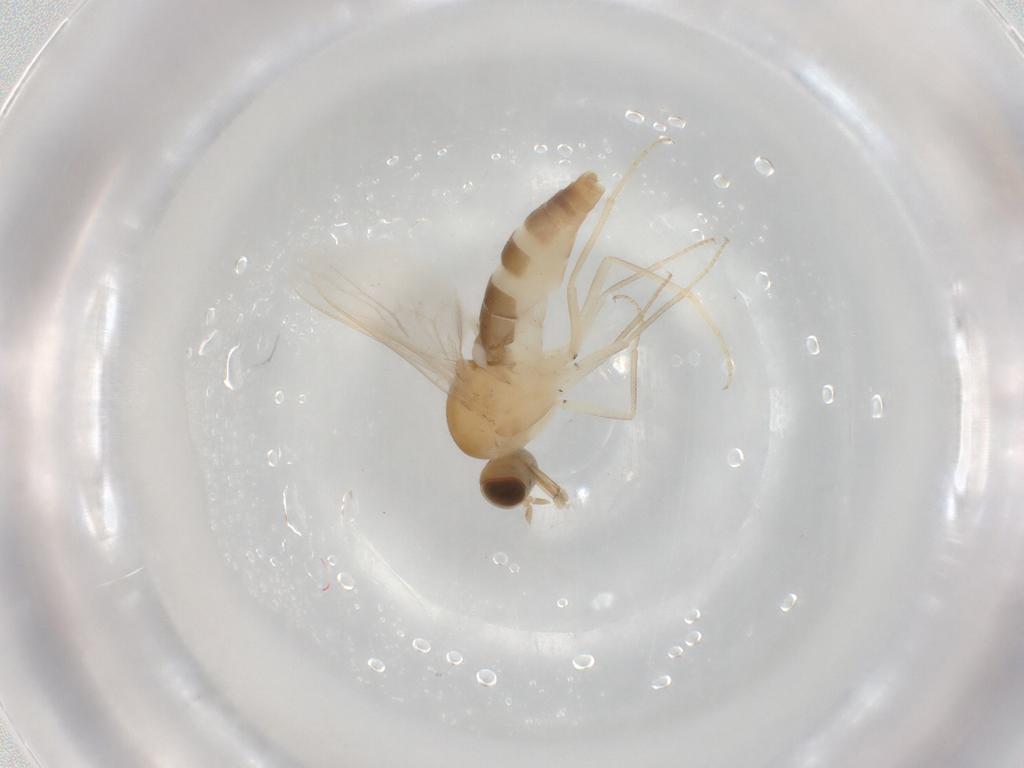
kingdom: Animalia
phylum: Arthropoda
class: Insecta
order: Diptera
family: Scenopinidae
